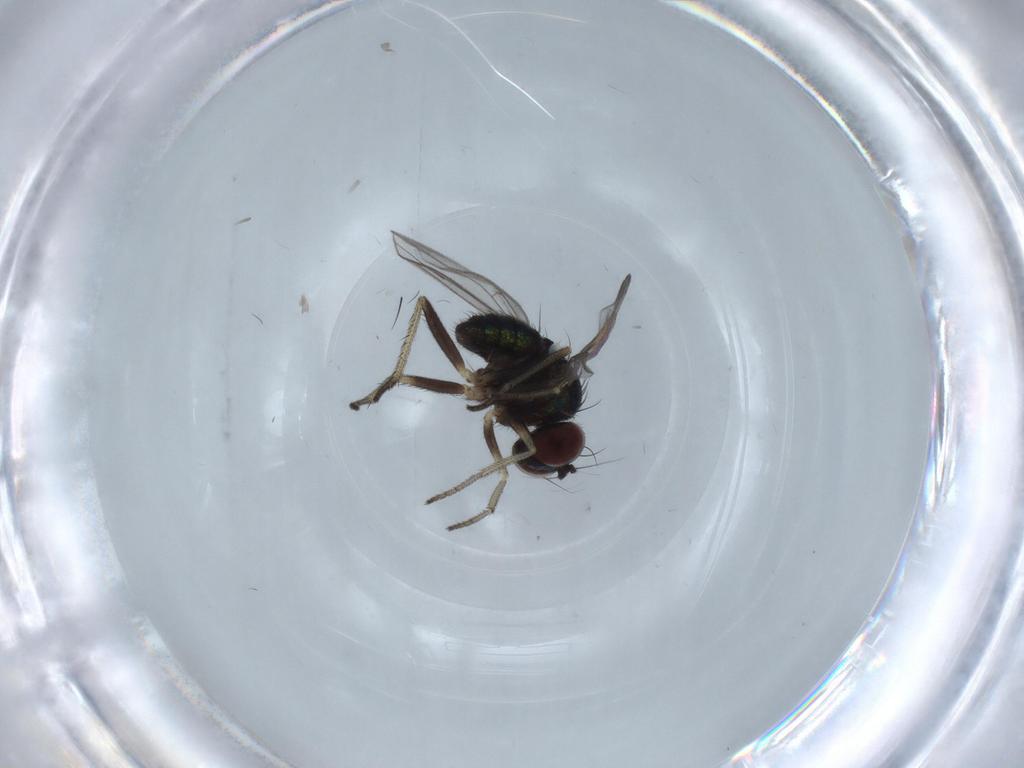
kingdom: Animalia
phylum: Arthropoda
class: Insecta
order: Diptera
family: Chironomidae
